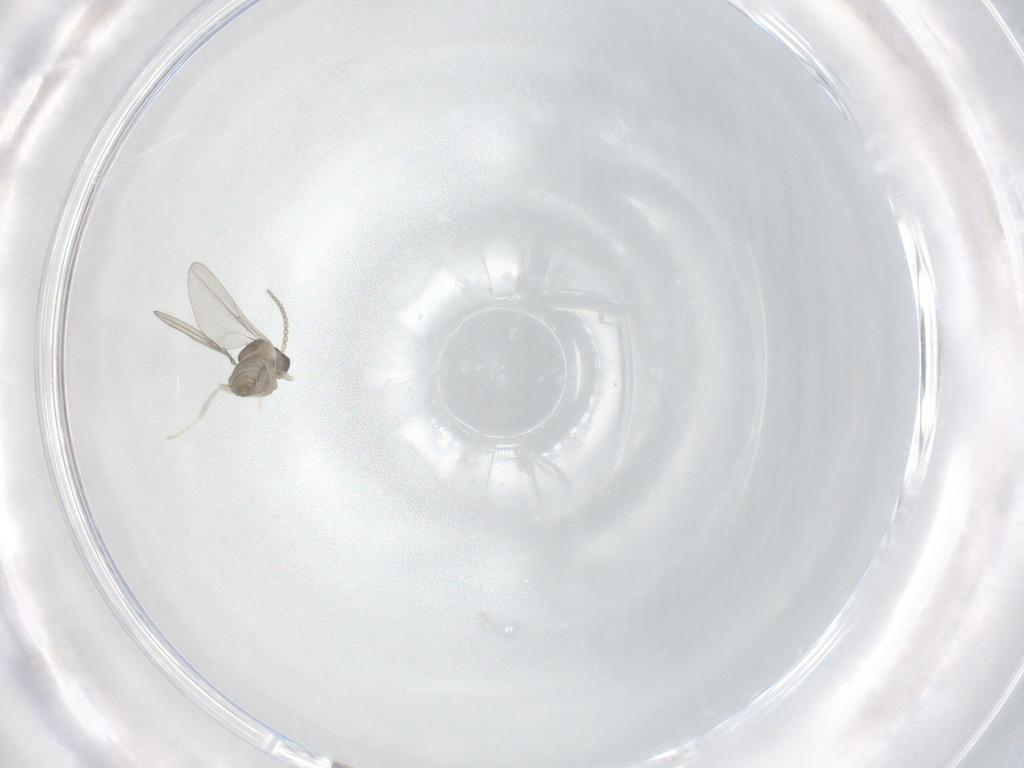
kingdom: Animalia
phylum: Arthropoda
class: Insecta
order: Diptera
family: Cecidomyiidae
